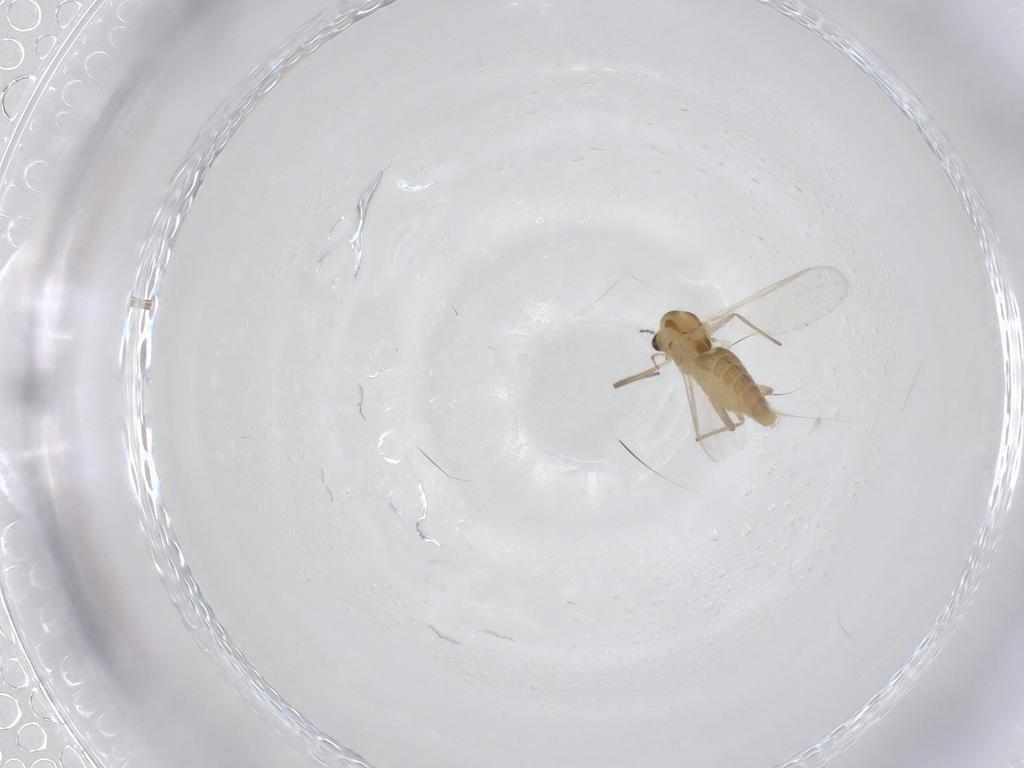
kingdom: Animalia
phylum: Arthropoda
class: Insecta
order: Diptera
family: Chironomidae
